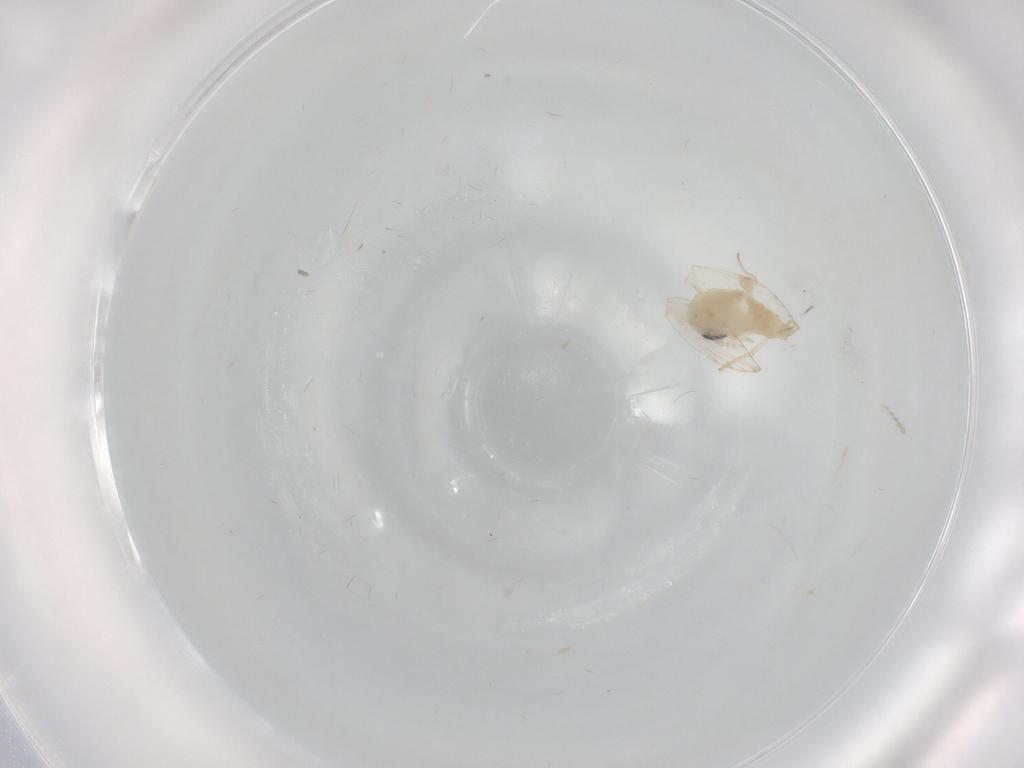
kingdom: Animalia
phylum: Arthropoda
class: Insecta
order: Diptera
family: Psychodidae
